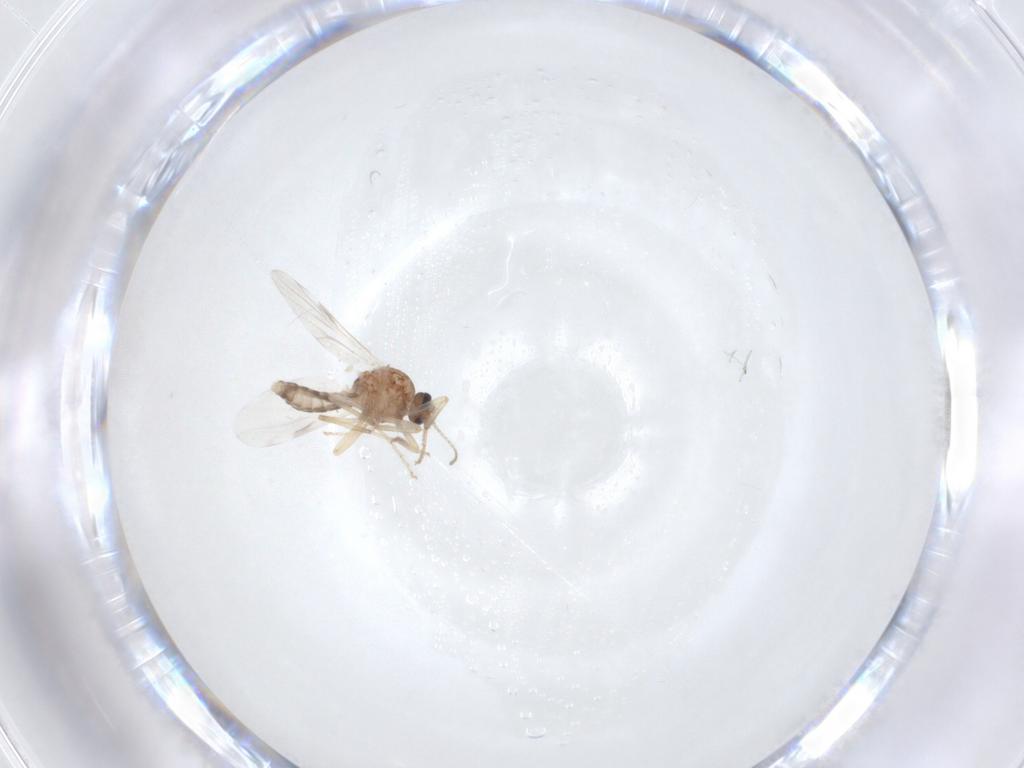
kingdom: Animalia
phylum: Arthropoda
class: Insecta
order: Diptera
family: Ceratopogonidae
